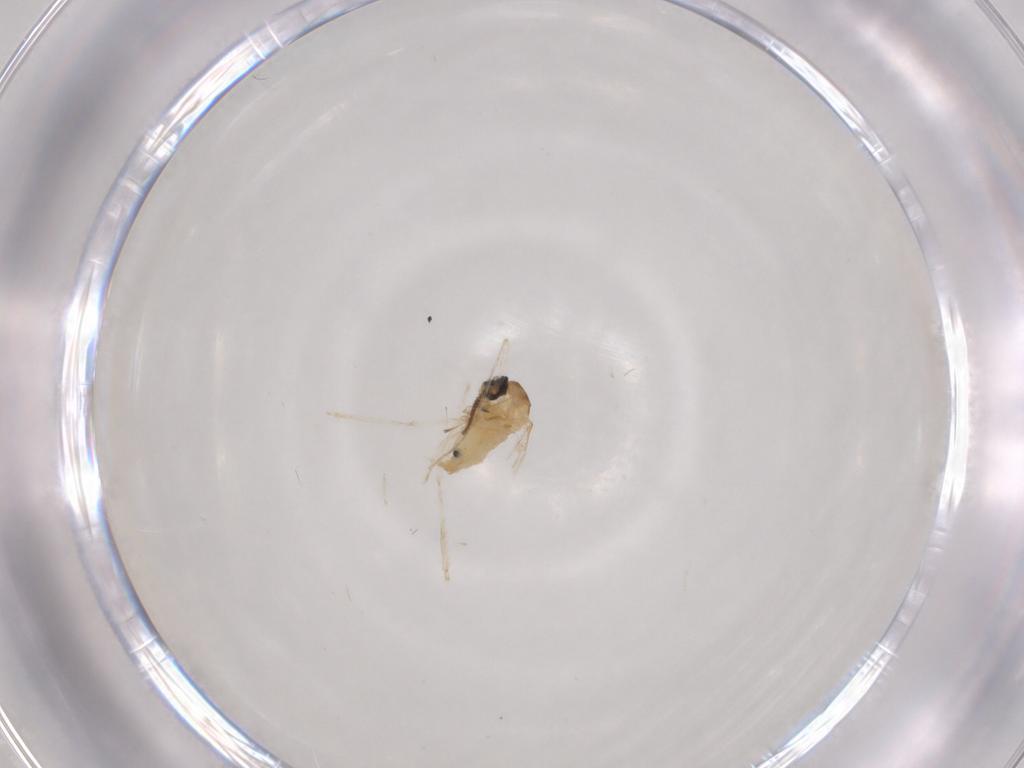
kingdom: Animalia
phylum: Arthropoda
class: Insecta
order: Diptera
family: Cecidomyiidae
